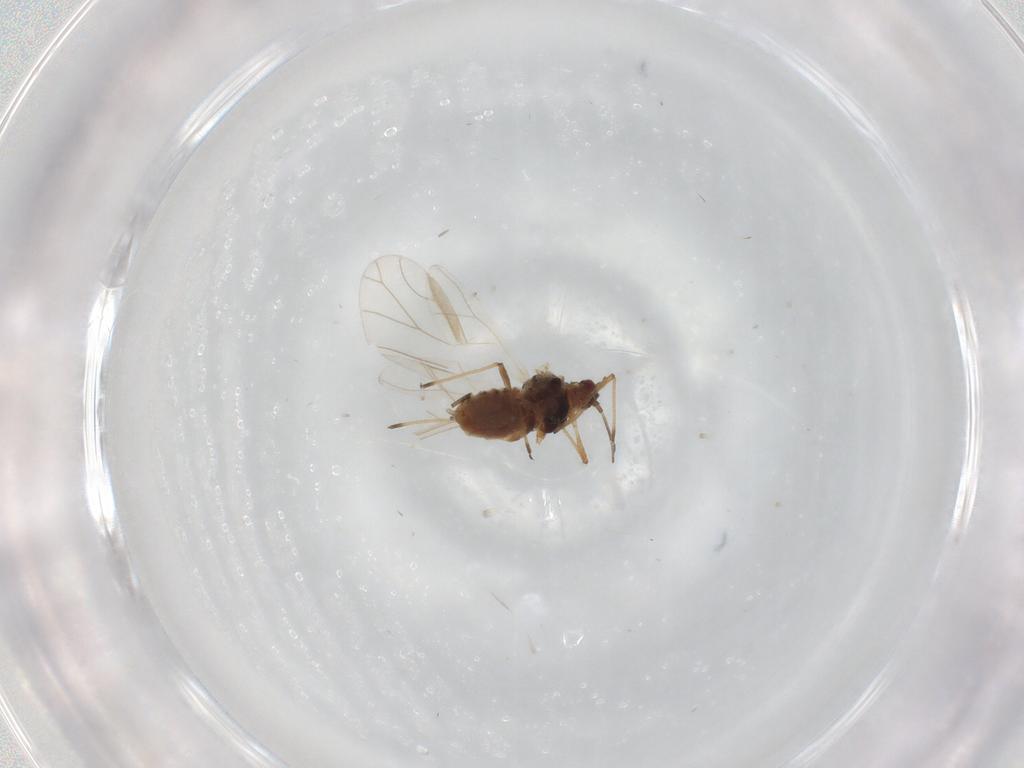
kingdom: Animalia
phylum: Arthropoda
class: Insecta
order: Hemiptera
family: Aphididae
